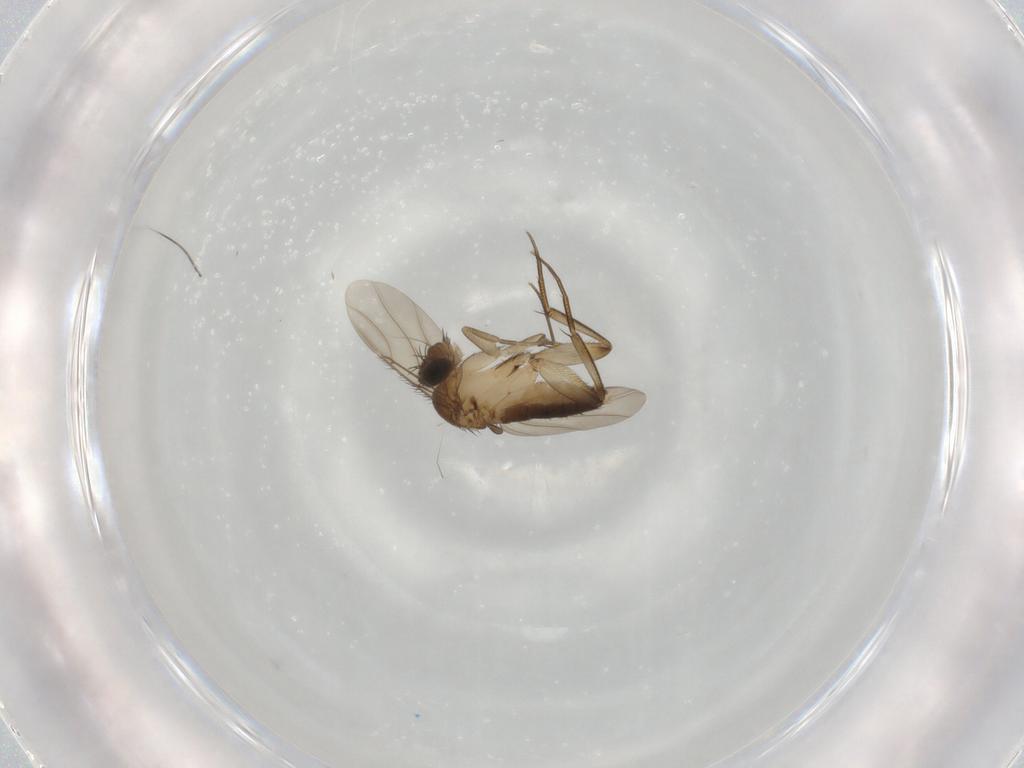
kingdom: Animalia
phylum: Arthropoda
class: Insecta
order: Diptera
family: Phoridae
